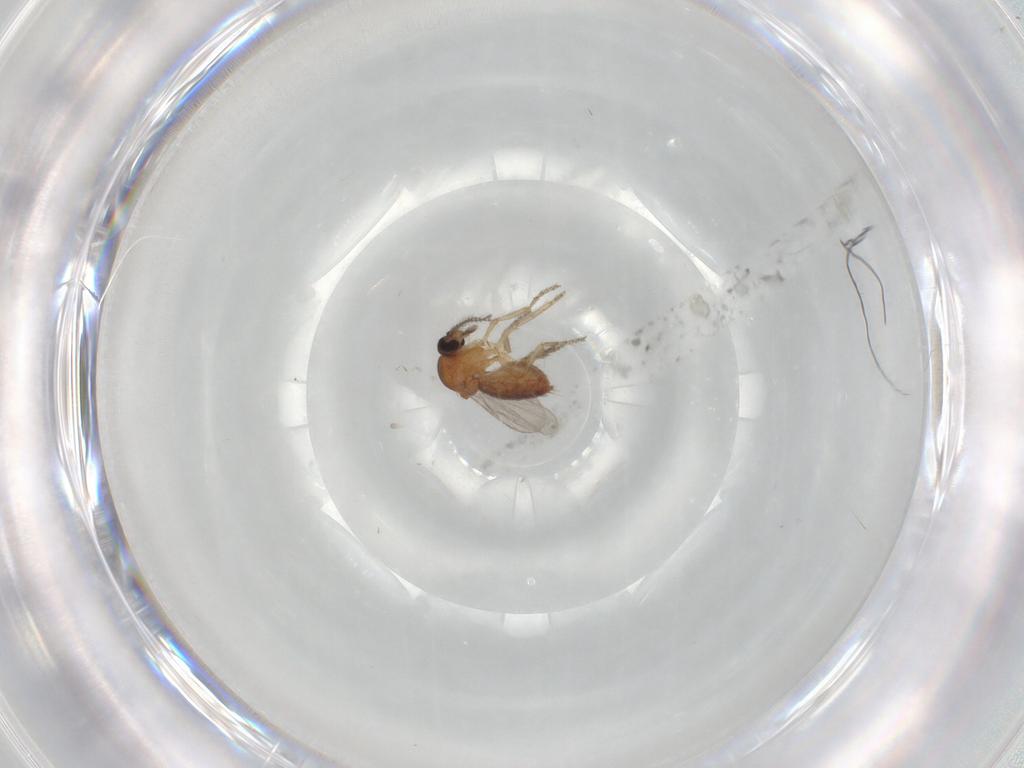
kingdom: Animalia
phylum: Arthropoda
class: Insecta
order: Diptera
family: Ceratopogonidae
